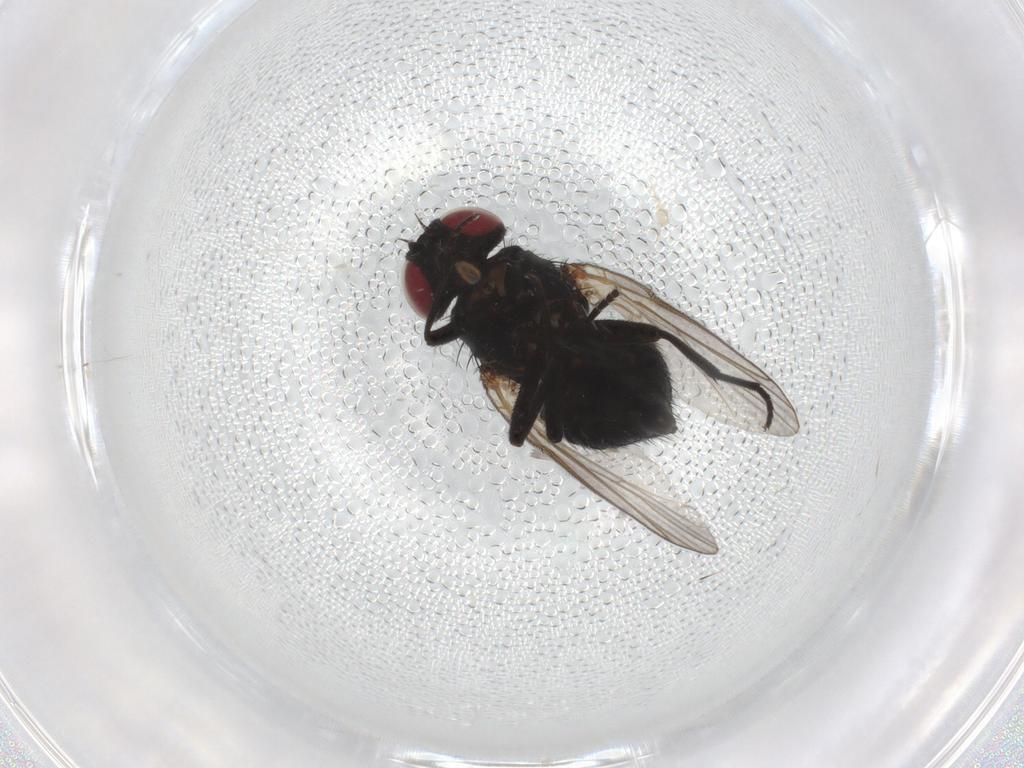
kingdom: Animalia
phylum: Arthropoda
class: Insecta
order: Diptera
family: Agromyzidae
